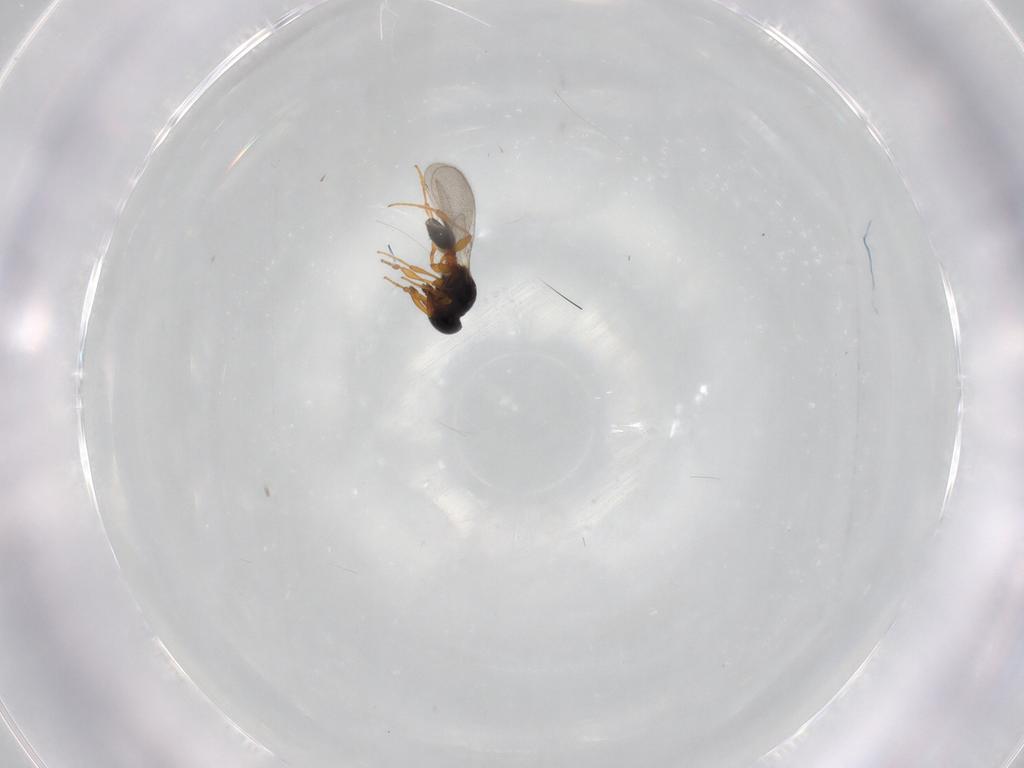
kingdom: Animalia
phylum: Arthropoda
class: Insecta
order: Hymenoptera
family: Platygastridae
